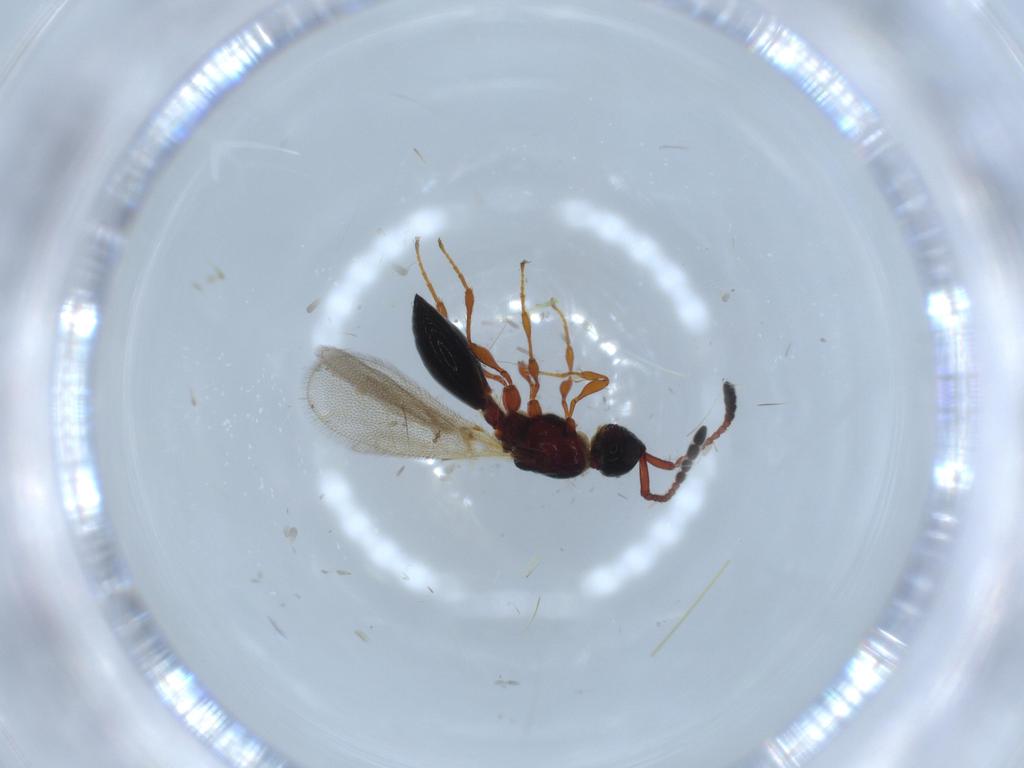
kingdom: Animalia
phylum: Arthropoda
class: Insecta
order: Hymenoptera
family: Diapriidae
